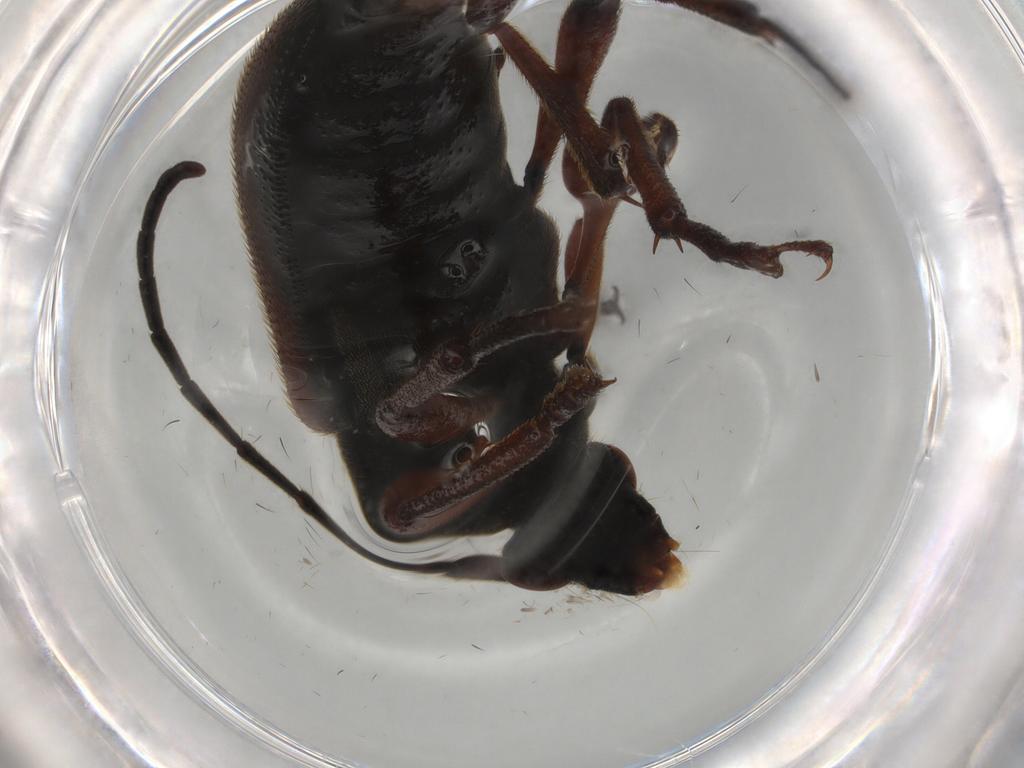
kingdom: Animalia
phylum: Arthropoda
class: Insecta
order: Coleoptera
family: Cerambycidae
